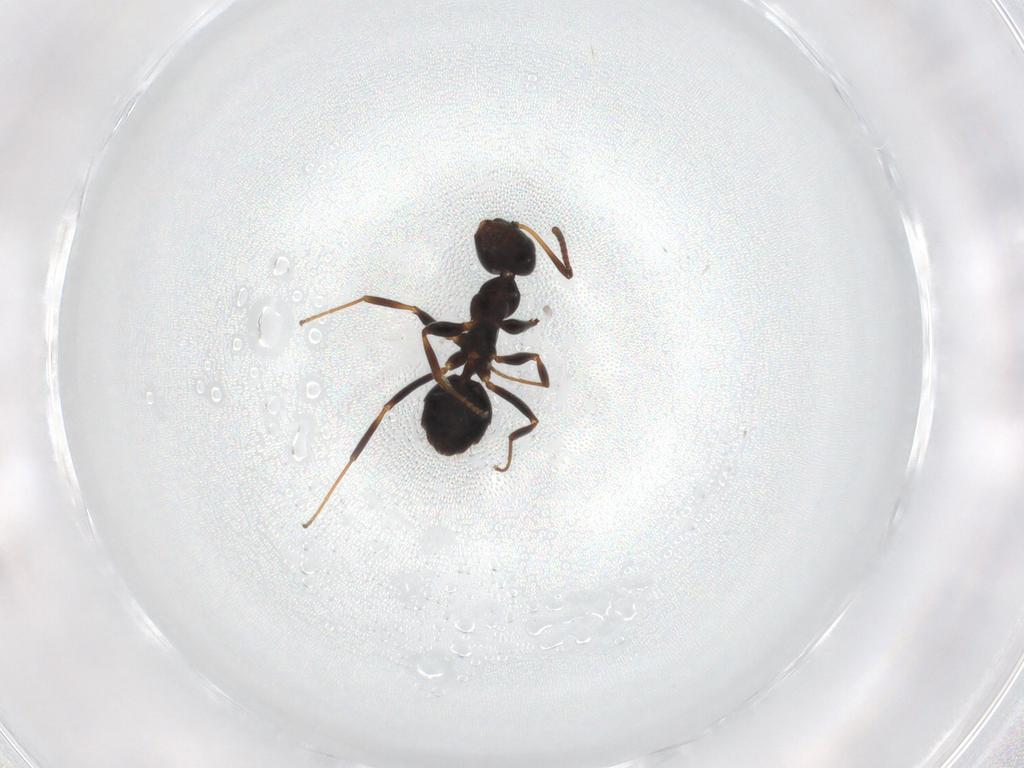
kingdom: Animalia
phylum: Arthropoda
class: Insecta
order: Hymenoptera
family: Formicidae
